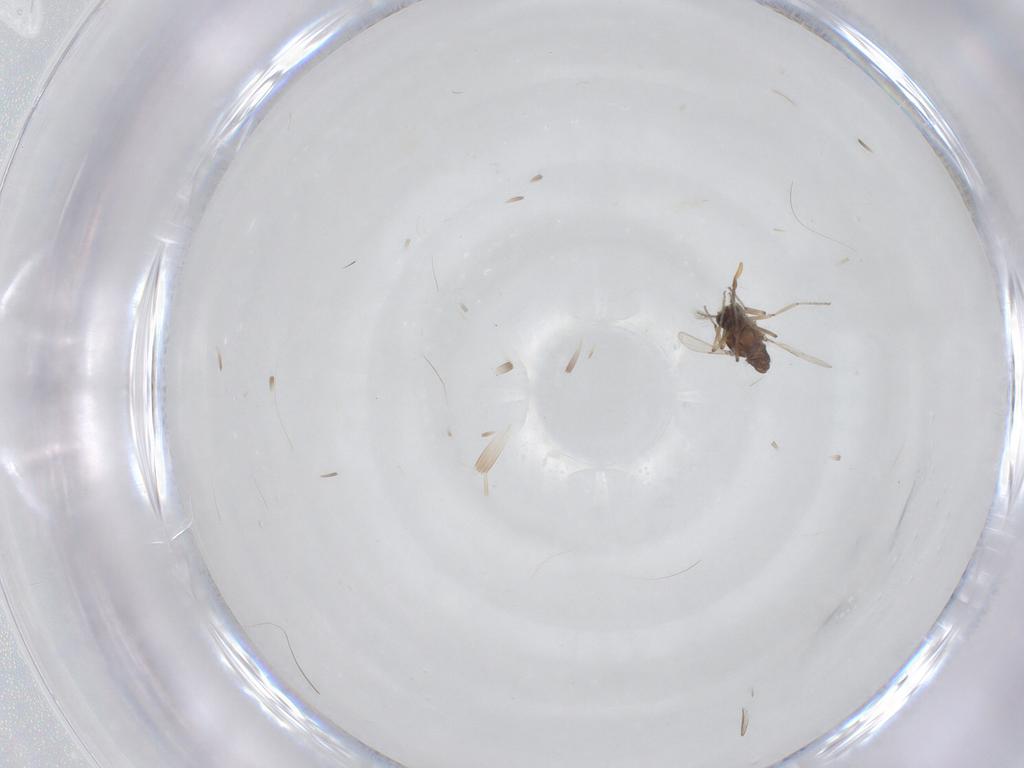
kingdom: Animalia
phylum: Arthropoda
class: Insecta
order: Diptera
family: Ceratopogonidae
